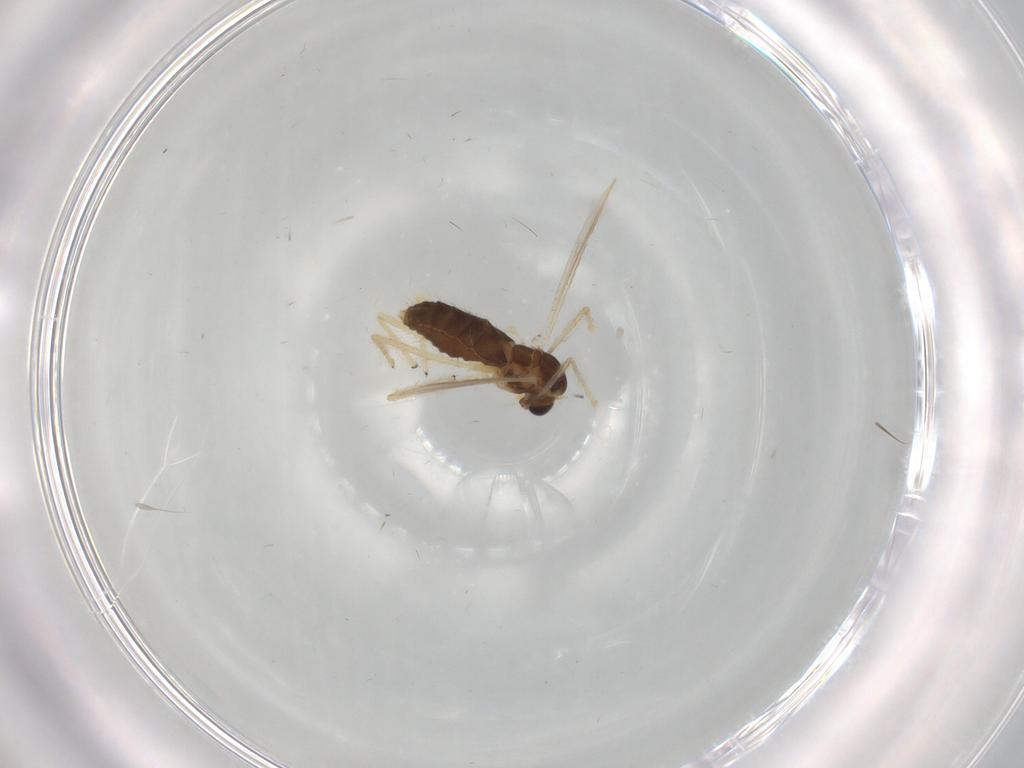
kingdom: Animalia
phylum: Arthropoda
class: Insecta
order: Diptera
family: Chironomidae
